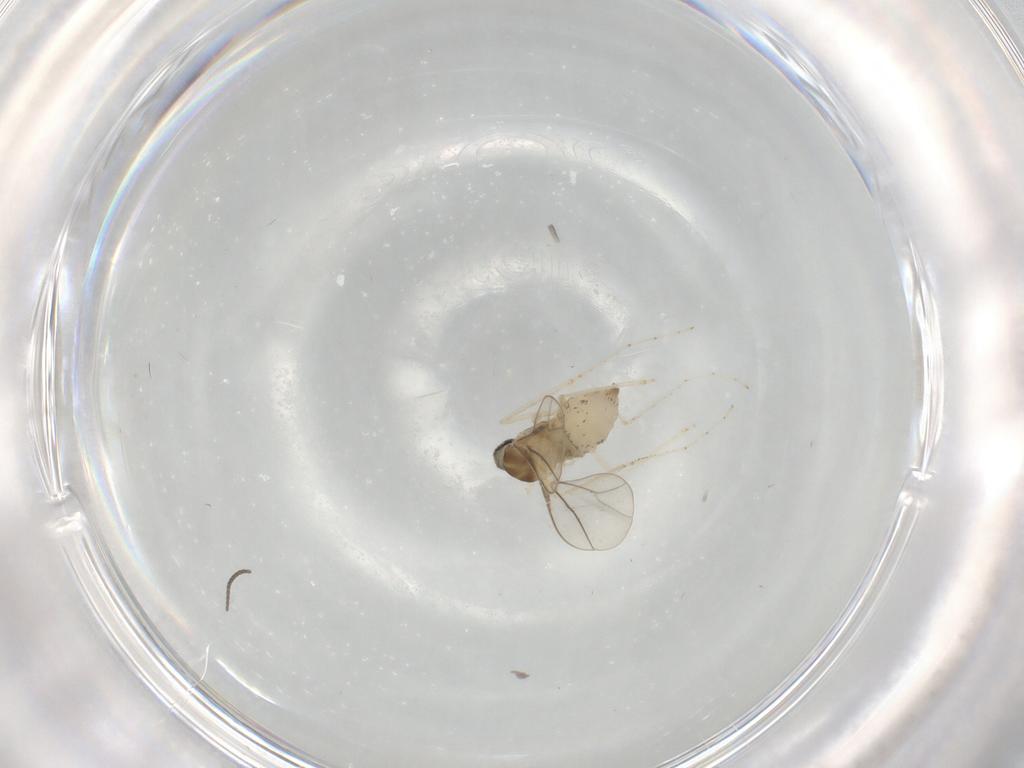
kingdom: Animalia
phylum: Arthropoda
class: Insecta
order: Diptera
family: Cecidomyiidae
